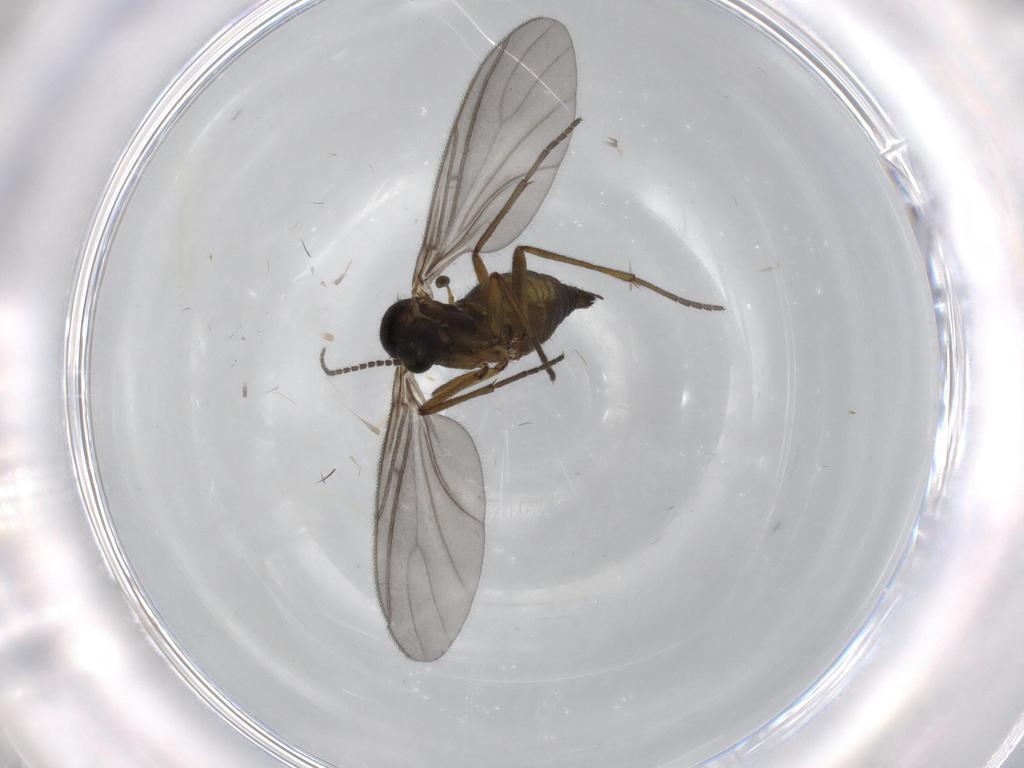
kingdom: Animalia
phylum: Arthropoda
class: Insecta
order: Diptera
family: Sciaridae
